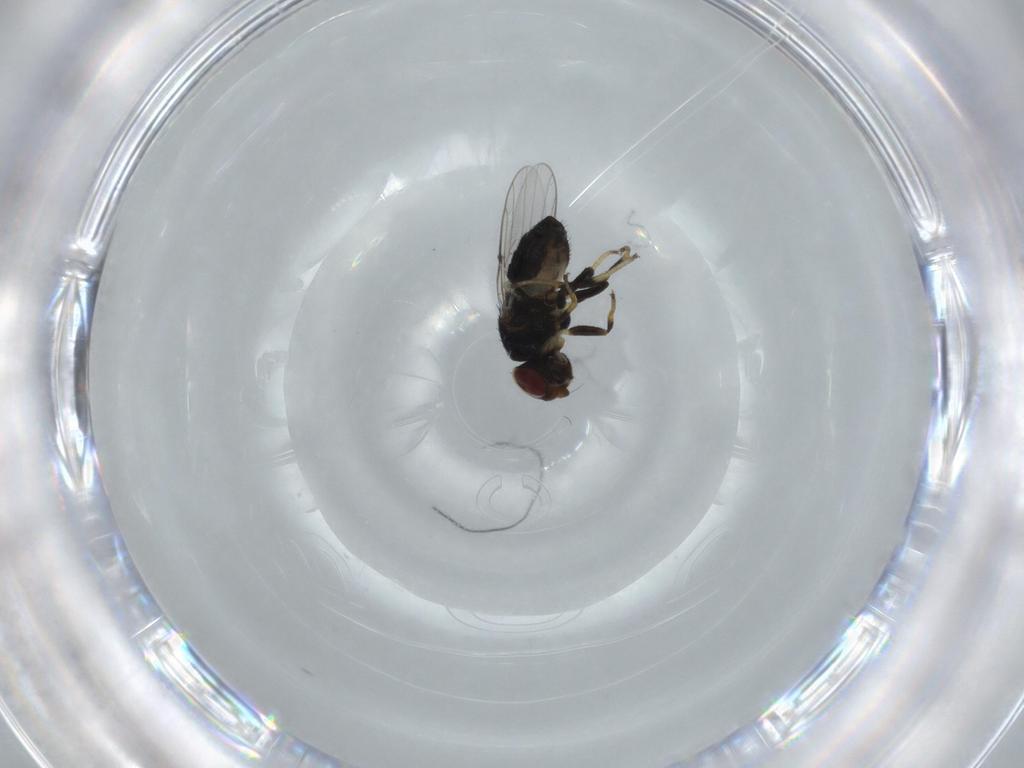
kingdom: Animalia
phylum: Arthropoda
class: Insecta
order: Diptera
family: Chloropidae
